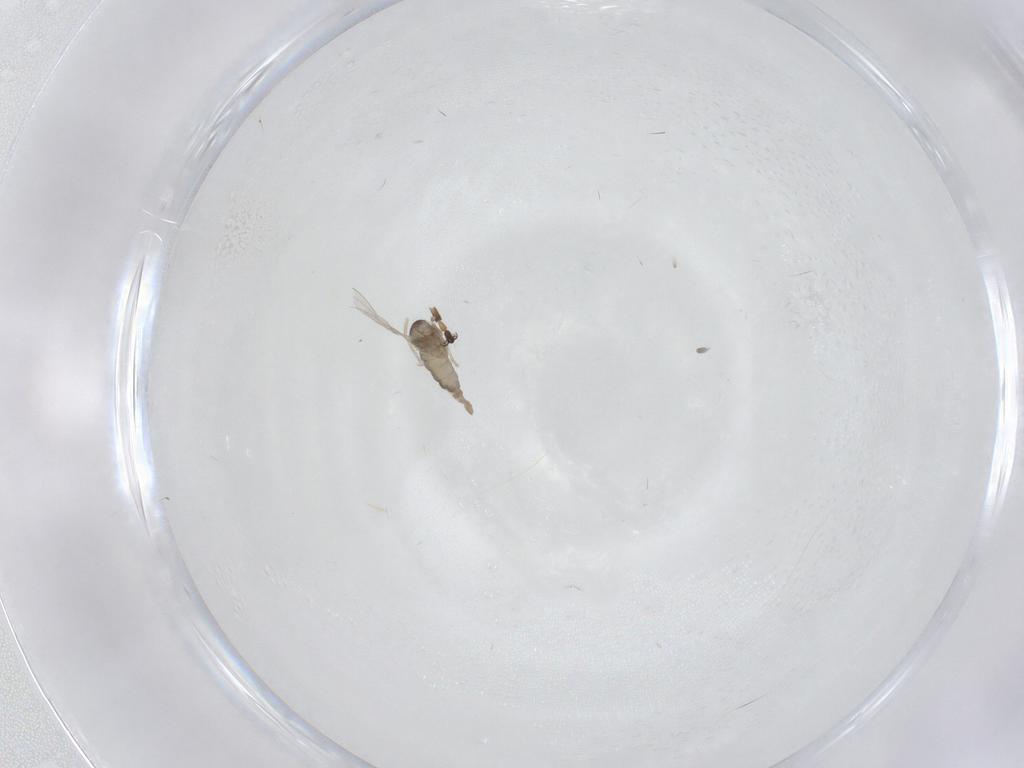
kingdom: Animalia
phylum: Arthropoda
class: Insecta
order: Diptera
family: Cecidomyiidae
